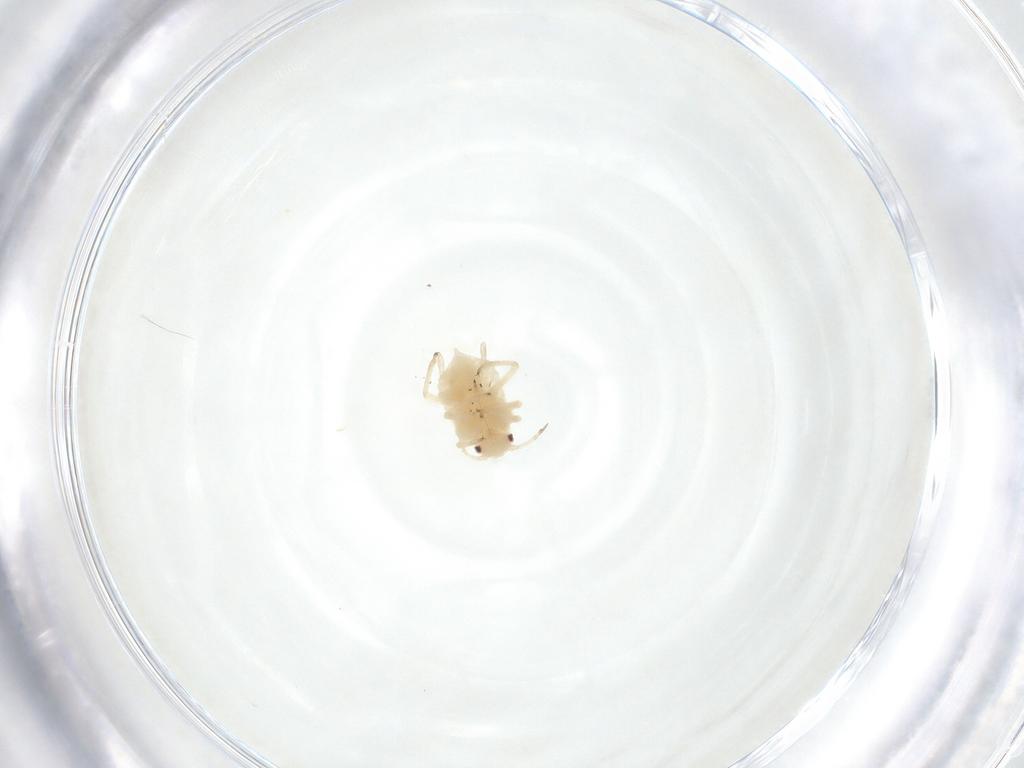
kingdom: Animalia
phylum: Arthropoda
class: Insecta
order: Hemiptera
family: Aphididae
